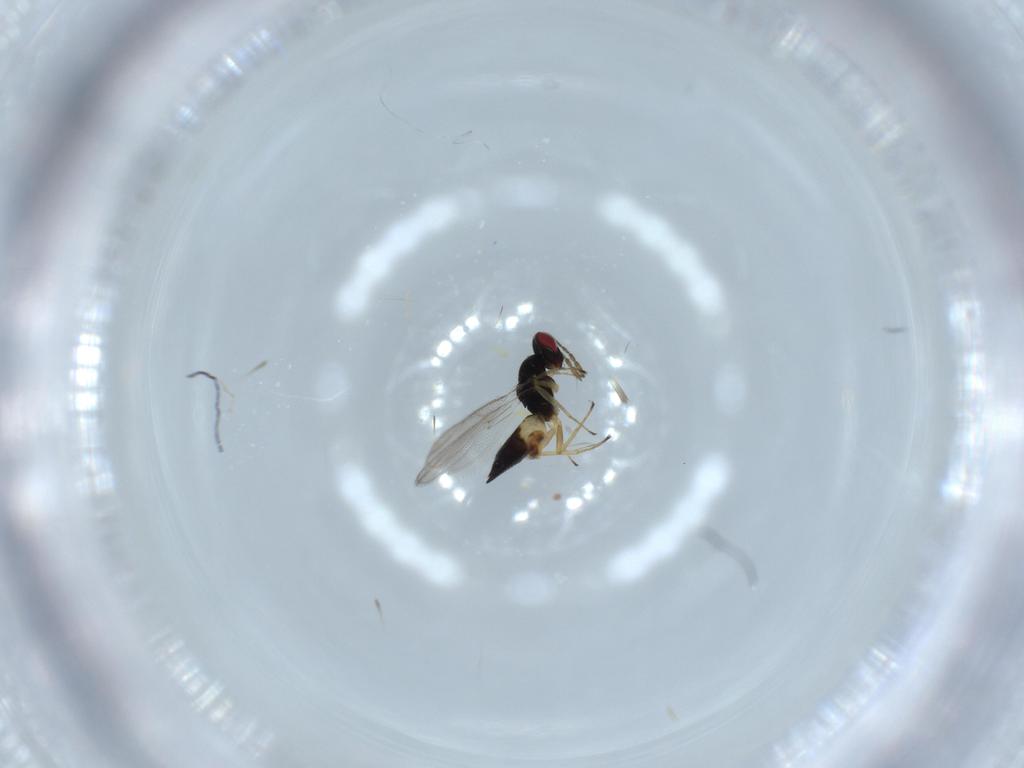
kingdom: Animalia
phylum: Arthropoda
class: Insecta
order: Hymenoptera
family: Eulophidae
